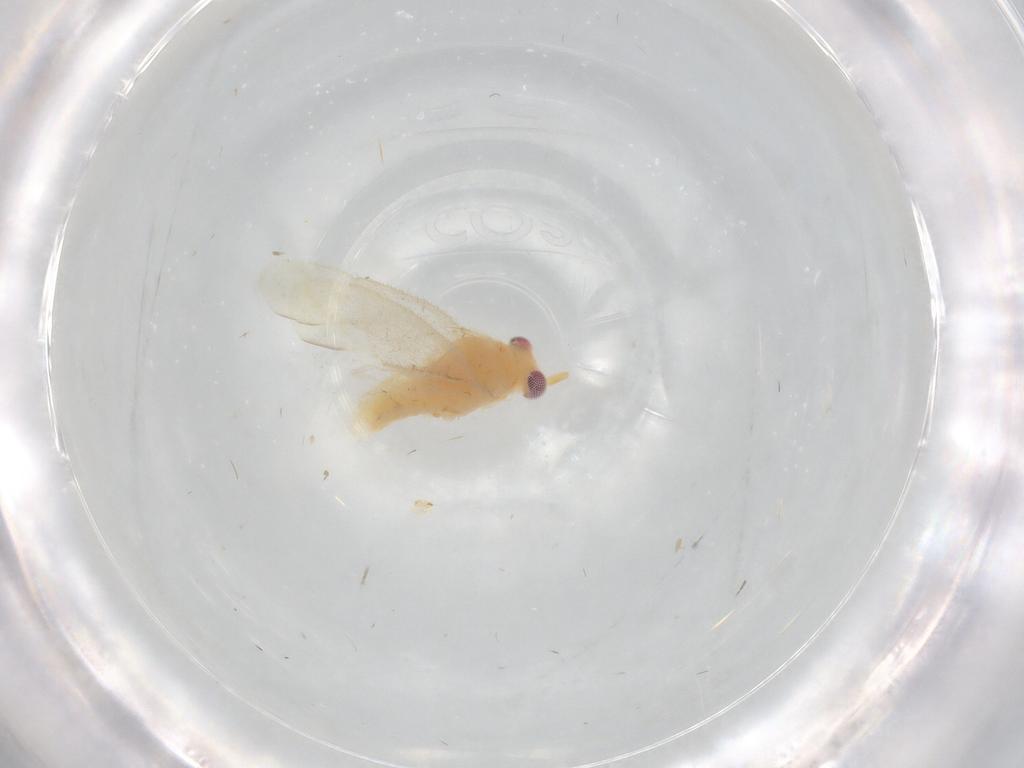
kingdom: Animalia
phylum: Arthropoda
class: Insecta
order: Hemiptera
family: Miridae
